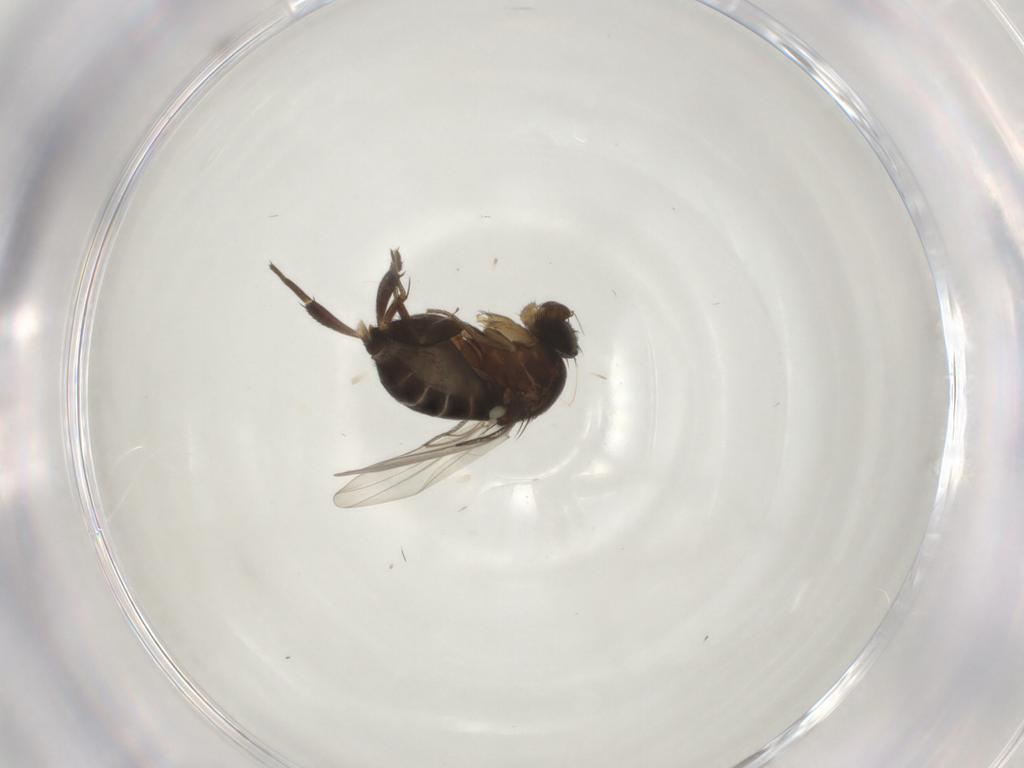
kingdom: Animalia
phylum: Arthropoda
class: Insecta
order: Diptera
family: Phoridae
